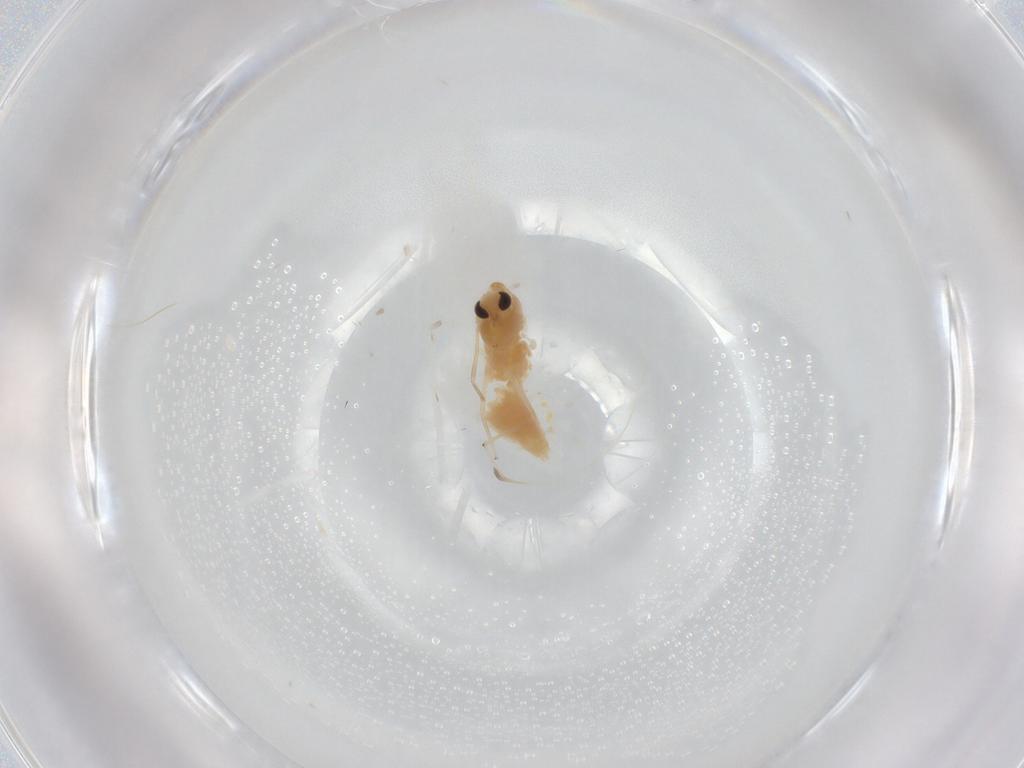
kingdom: Animalia
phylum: Arthropoda
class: Insecta
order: Diptera
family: Chironomidae
